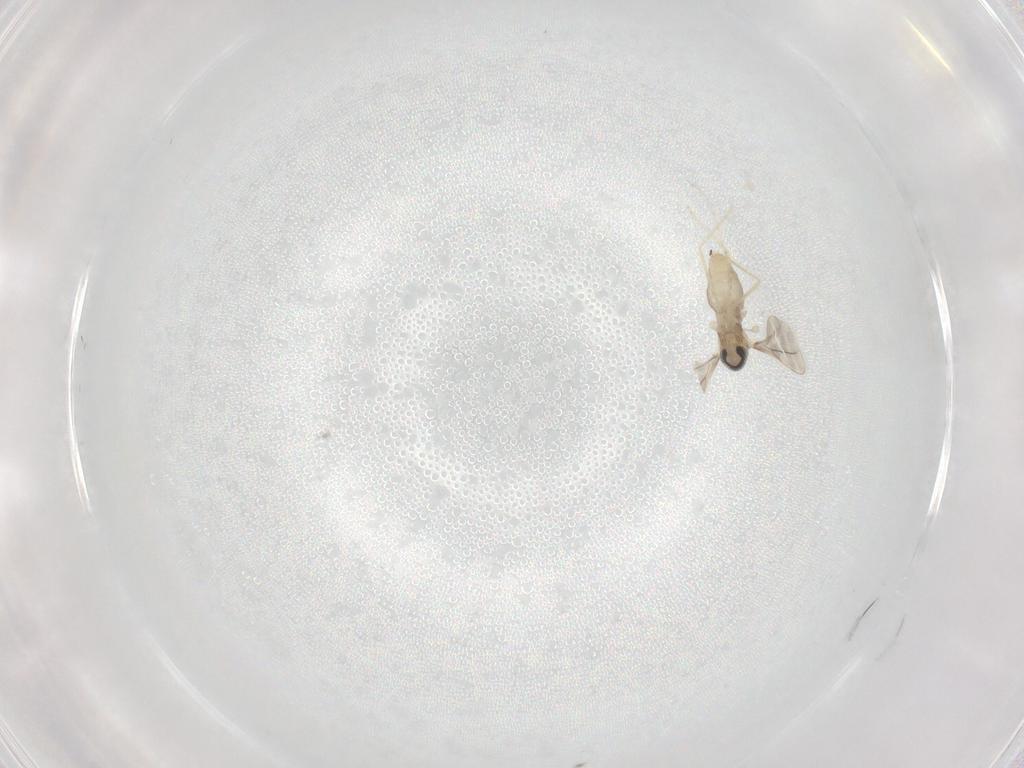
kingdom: Animalia
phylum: Arthropoda
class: Insecta
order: Diptera
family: Cecidomyiidae
